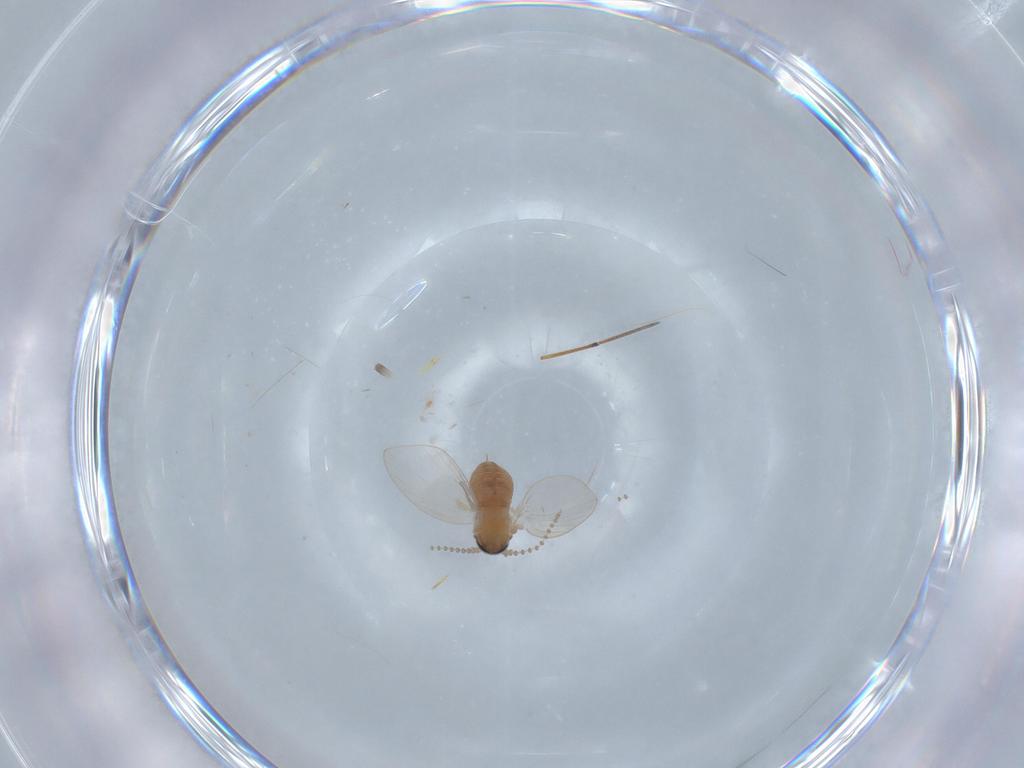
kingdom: Animalia
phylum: Arthropoda
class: Insecta
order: Diptera
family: Psychodidae
